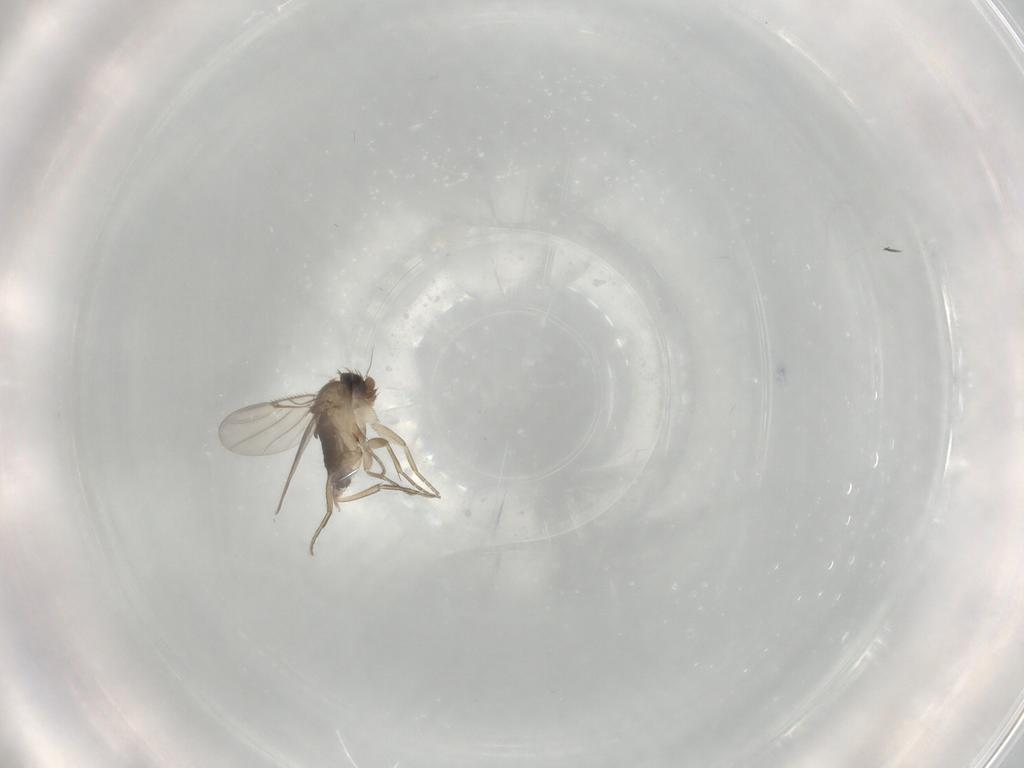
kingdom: Animalia
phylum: Arthropoda
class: Insecta
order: Diptera
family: Phoridae
